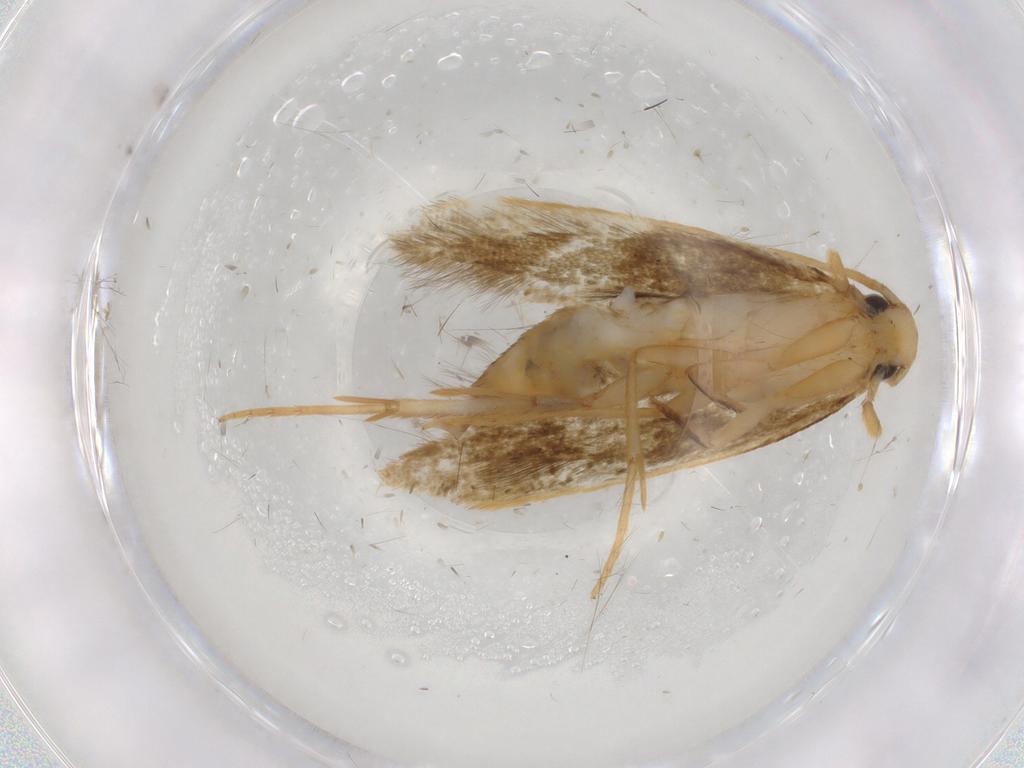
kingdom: Animalia
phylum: Arthropoda
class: Insecta
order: Lepidoptera
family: Tineidae
